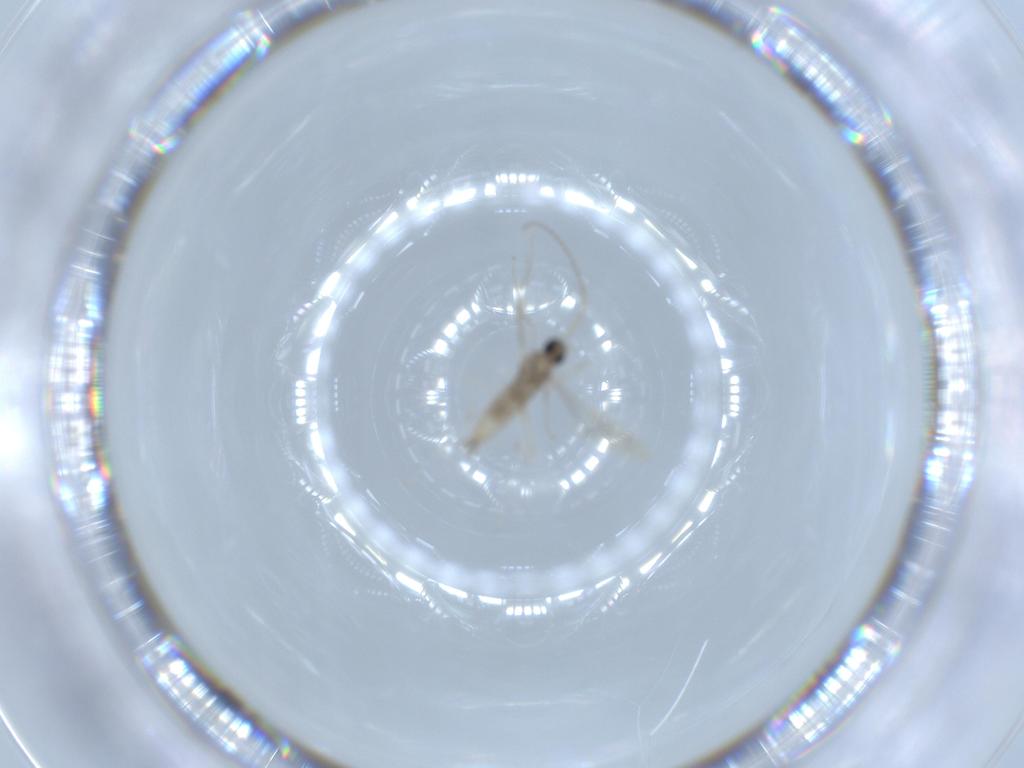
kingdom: Animalia
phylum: Arthropoda
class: Insecta
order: Diptera
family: Cecidomyiidae
